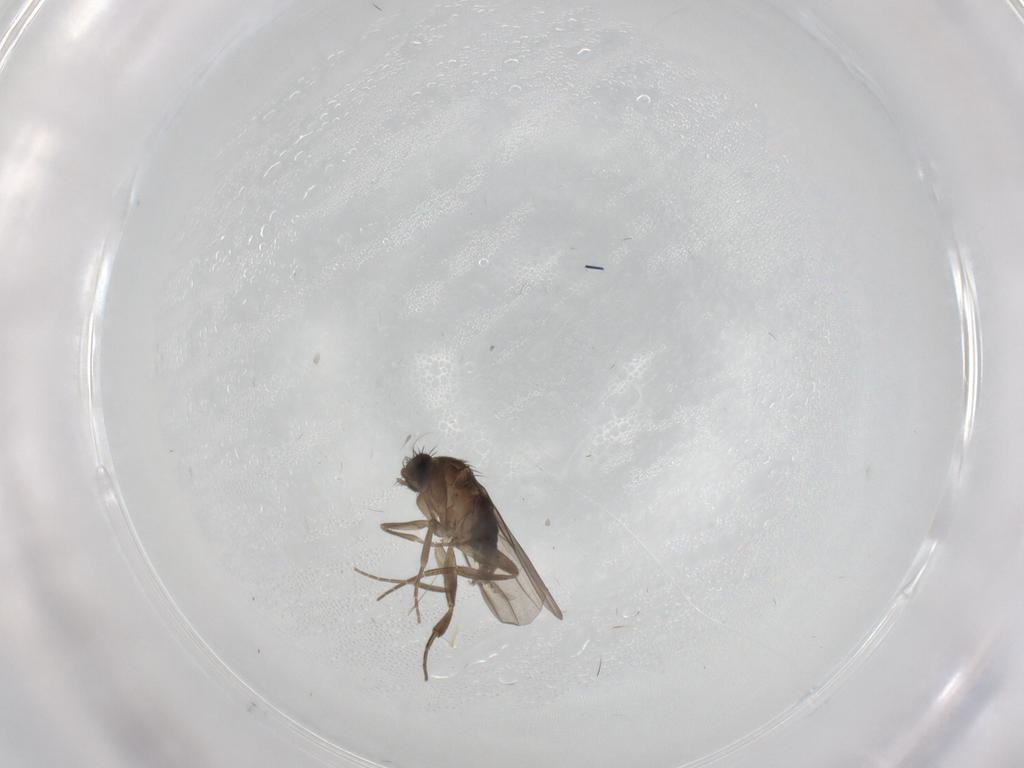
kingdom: Animalia
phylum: Arthropoda
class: Insecta
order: Diptera
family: Phoridae
